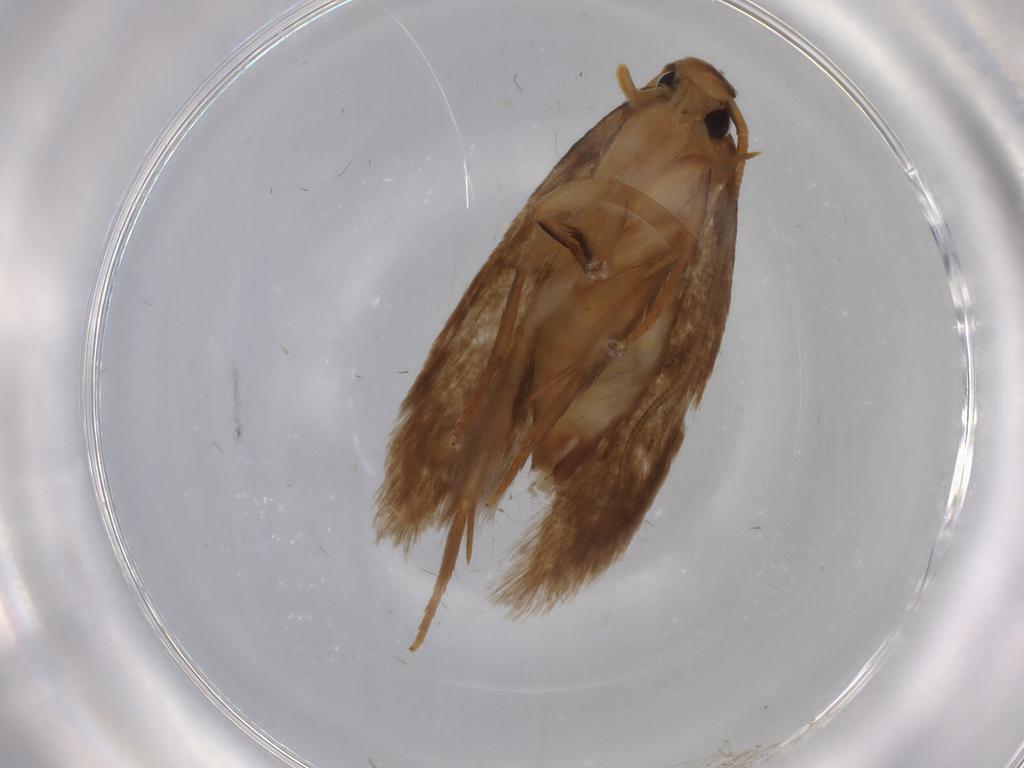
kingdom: Animalia
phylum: Arthropoda
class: Insecta
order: Lepidoptera
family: Tineidae
